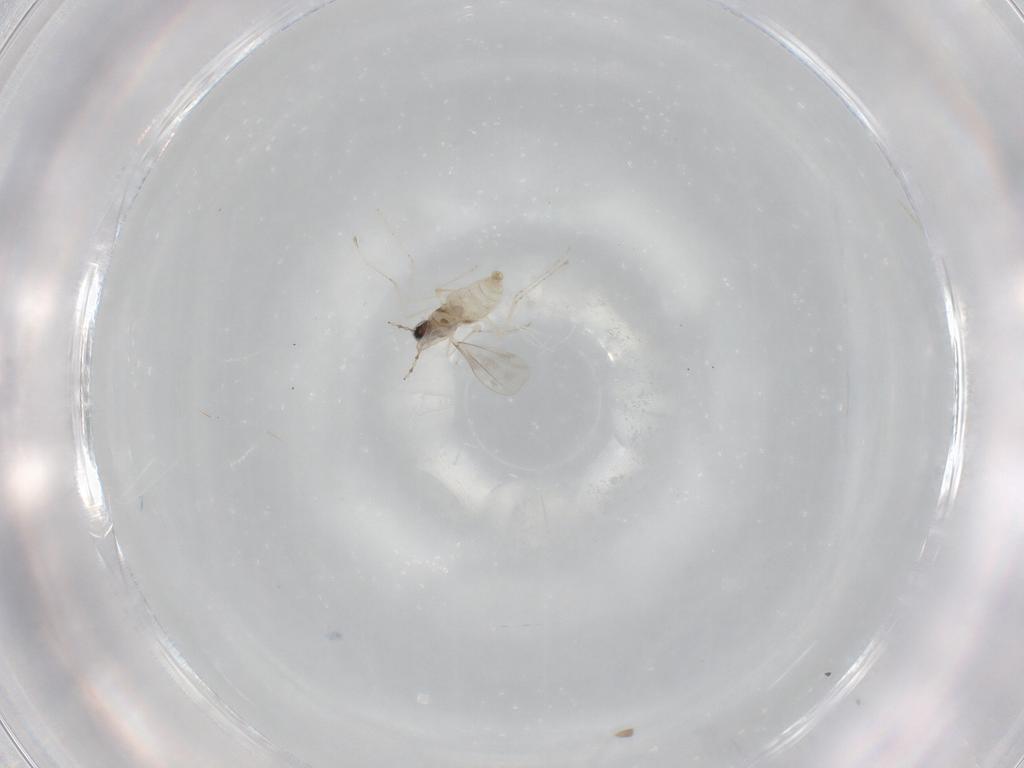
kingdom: Animalia
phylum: Arthropoda
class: Insecta
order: Diptera
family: Cecidomyiidae
